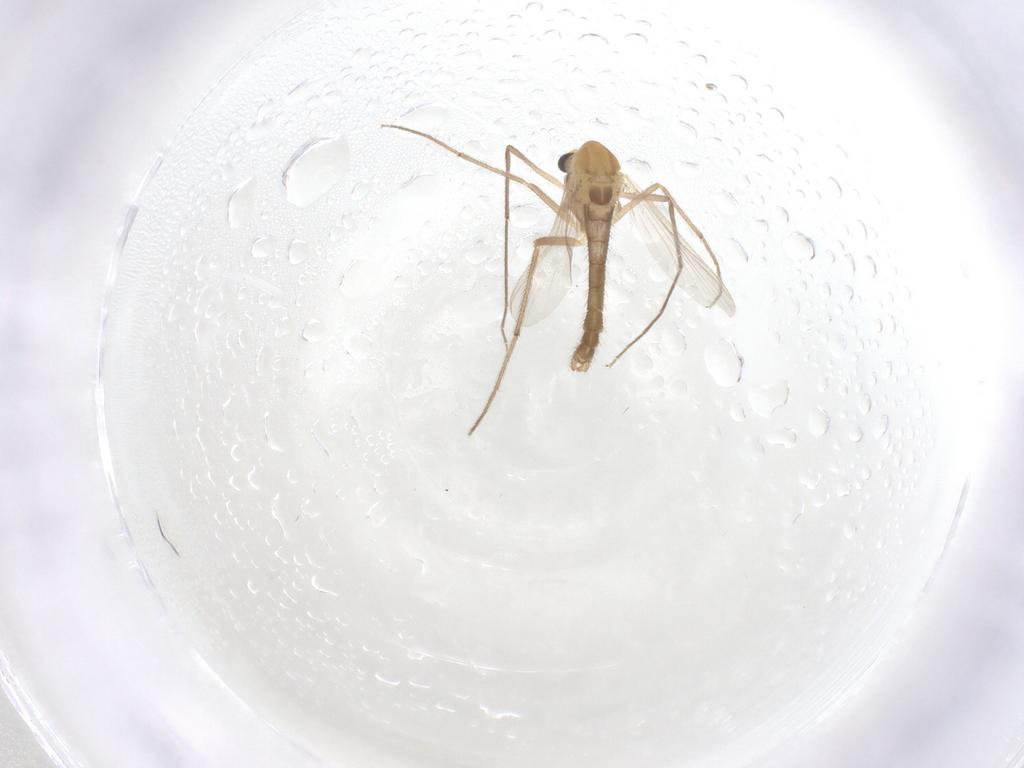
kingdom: Animalia
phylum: Arthropoda
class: Insecta
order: Diptera
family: Chironomidae
